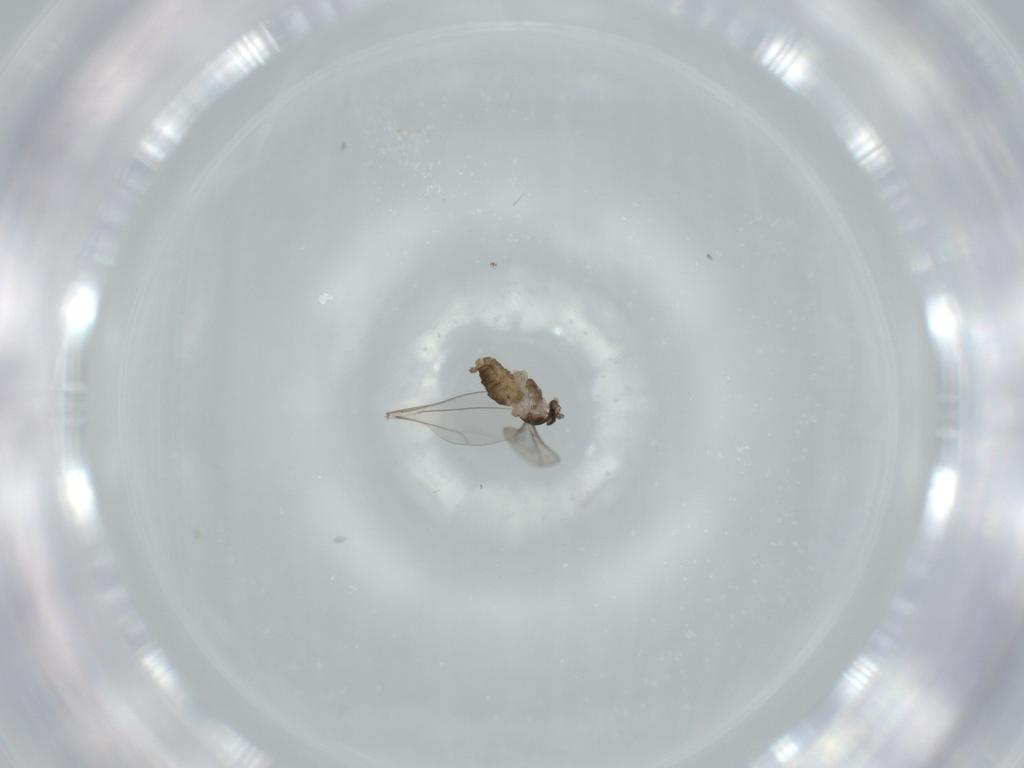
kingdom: Animalia
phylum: Arthropoda
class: Insecta
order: Diptera
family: Cecidomyiidae
